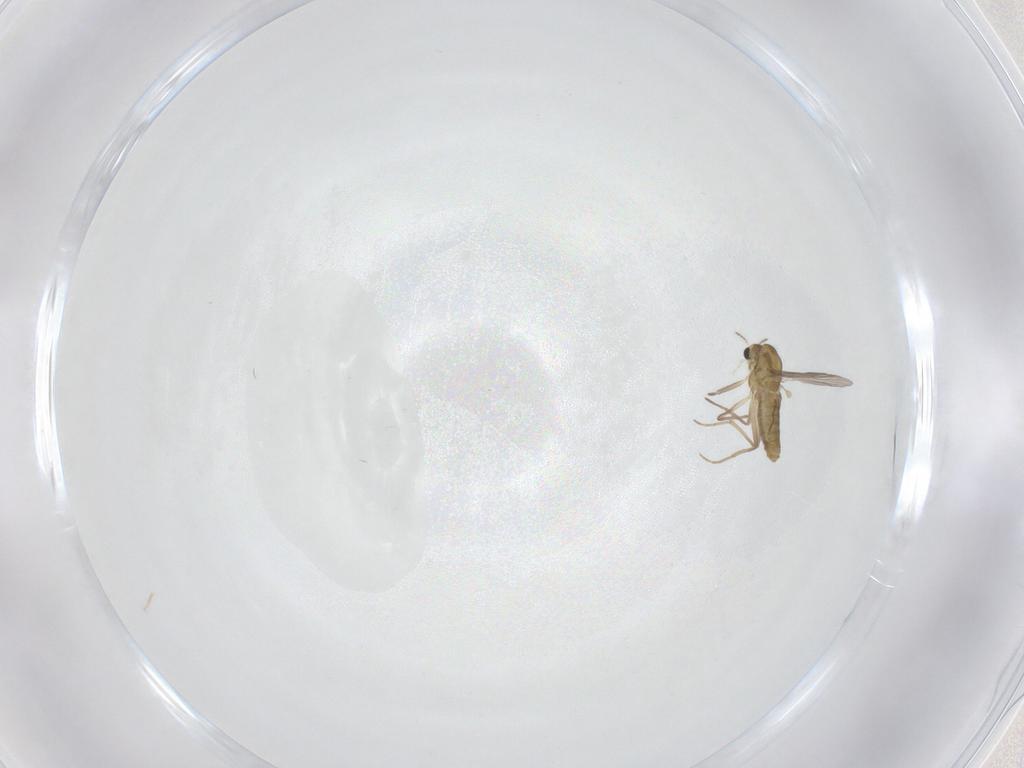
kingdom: Animalia
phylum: Arthropoda
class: Insecta
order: Diptera
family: Chironomidae
